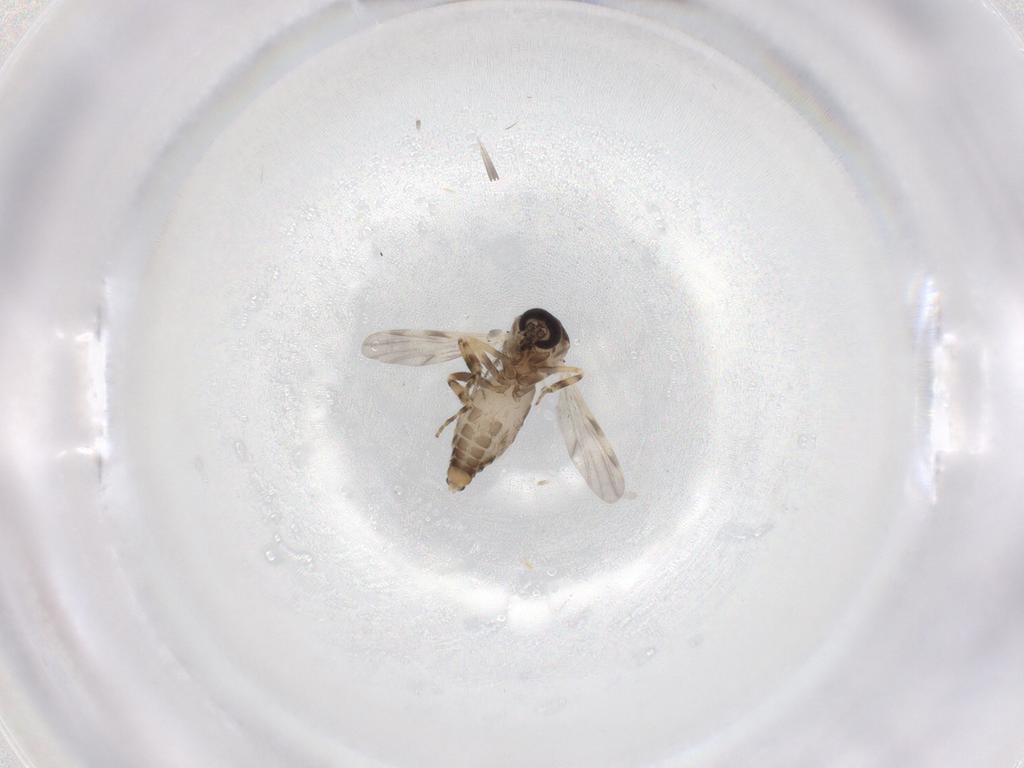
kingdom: Animalia
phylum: Arthropoda
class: Insecta
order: Diptera
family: Ceratopogonidae
